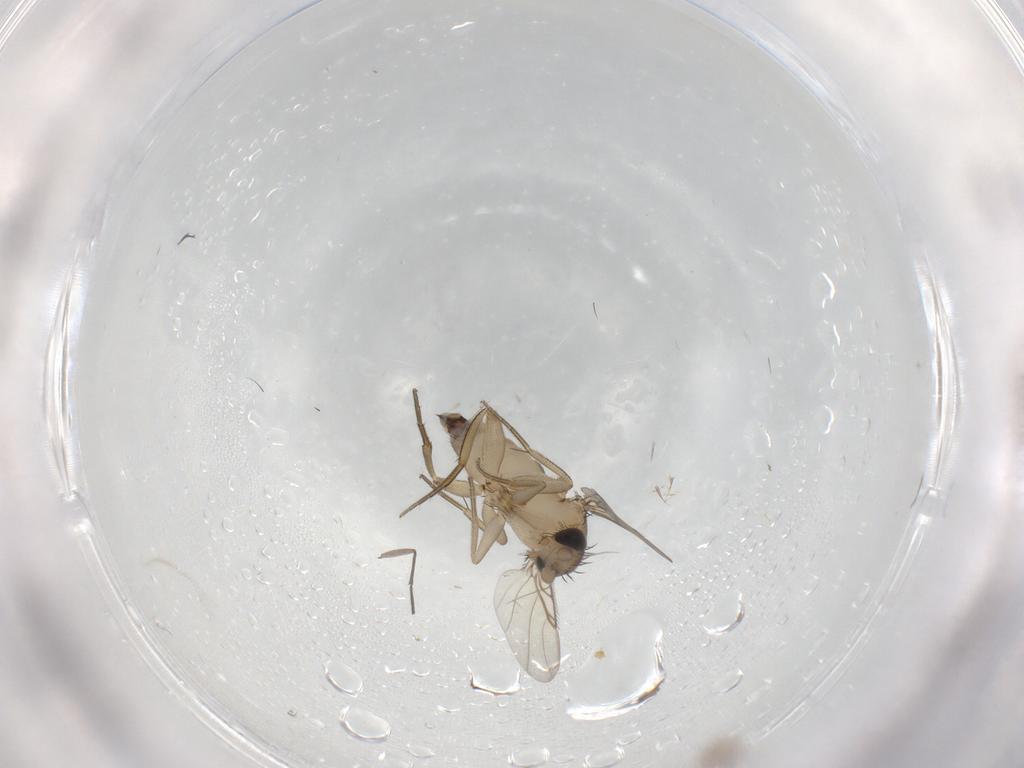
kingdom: Animalia
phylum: Arthropoda
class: Insecta
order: Diptera
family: Phoridae
